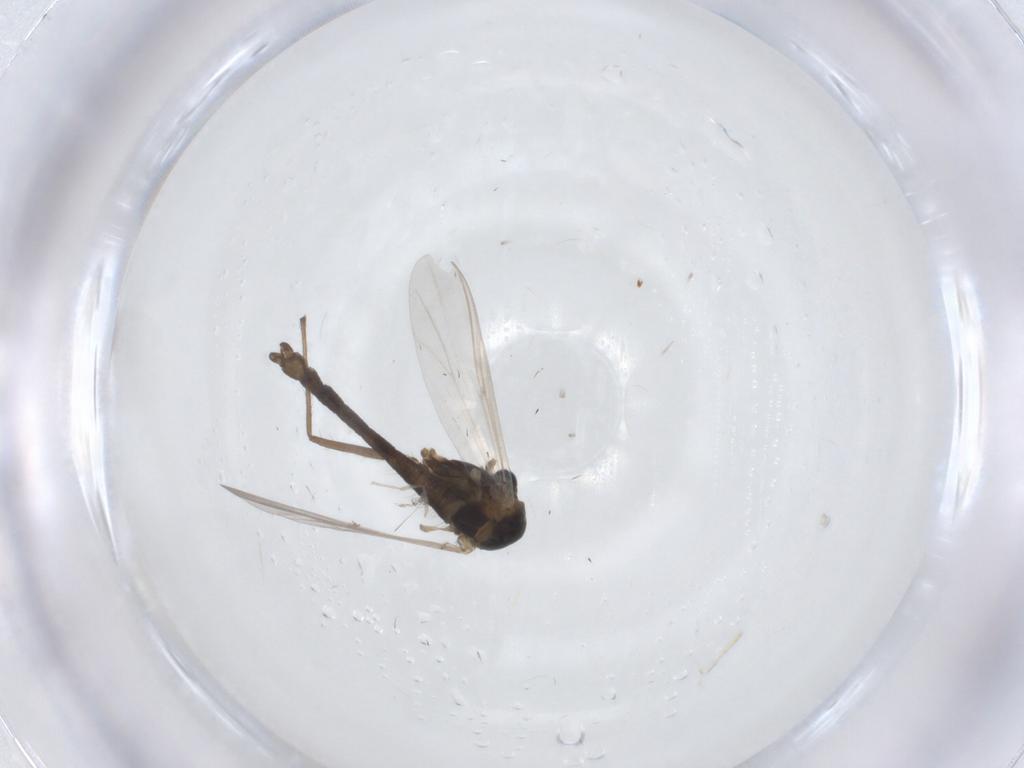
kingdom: Animalia
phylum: Arthropoda
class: Insecta
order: Diptera
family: Chironomidae
